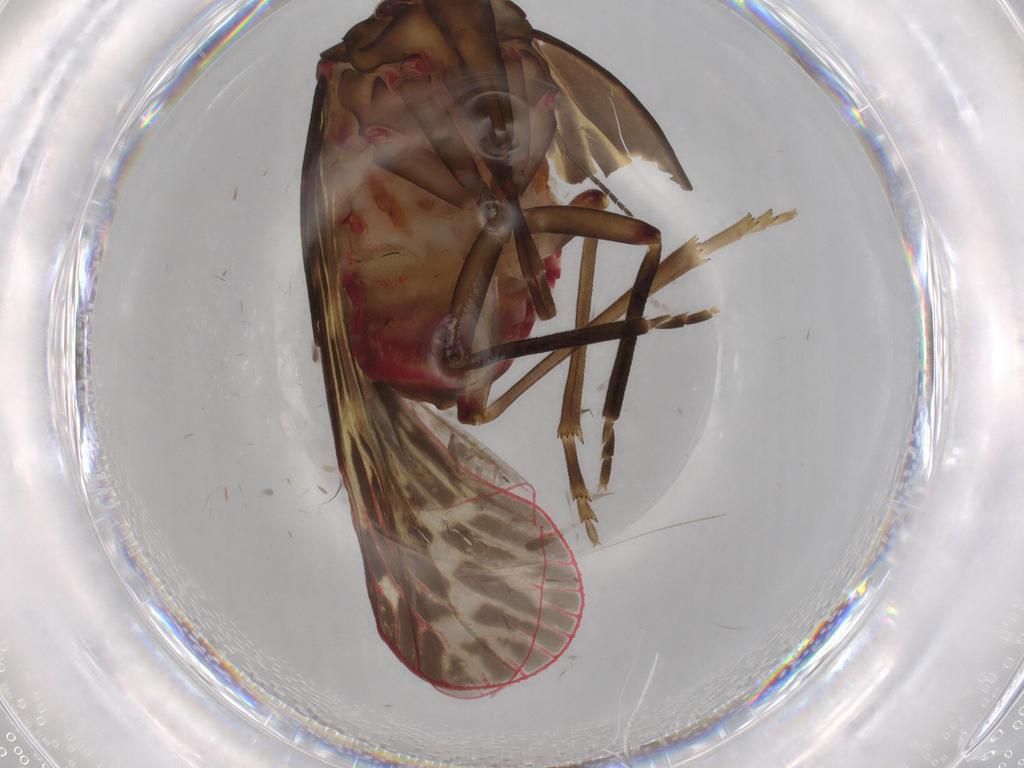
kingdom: Animalia
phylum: Arthropoda
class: Insecta
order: Hemiptera
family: Achilidae
